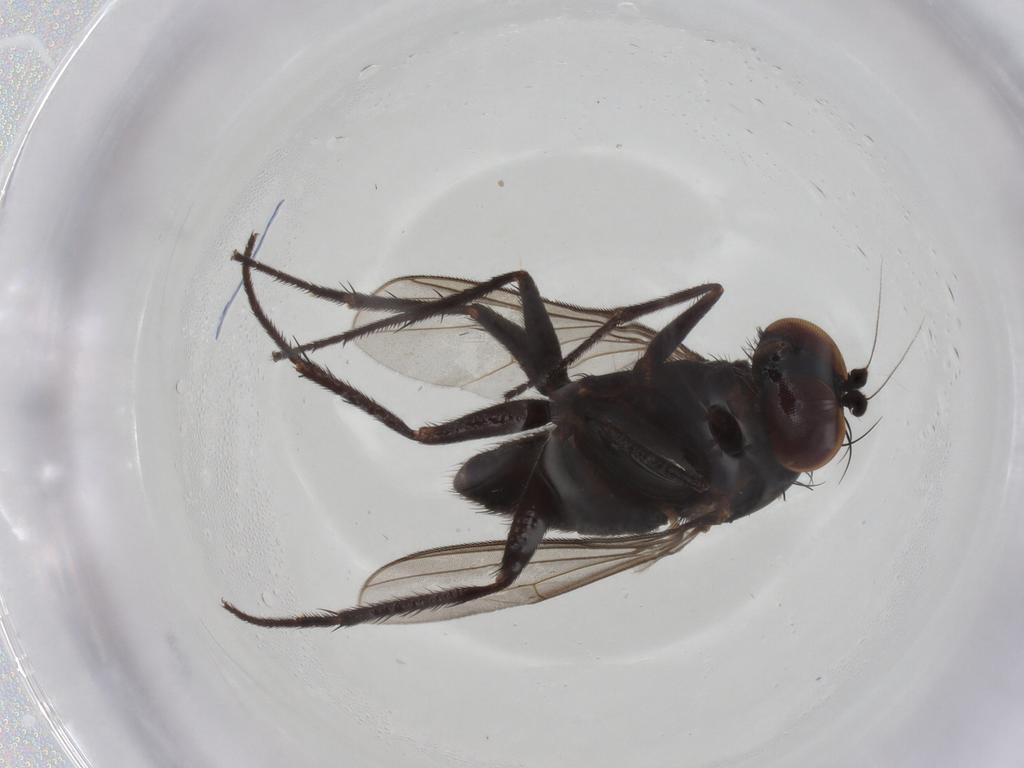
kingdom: Animalia
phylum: Arthropoda
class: Insecta
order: Diptera
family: Dolichopodidae
